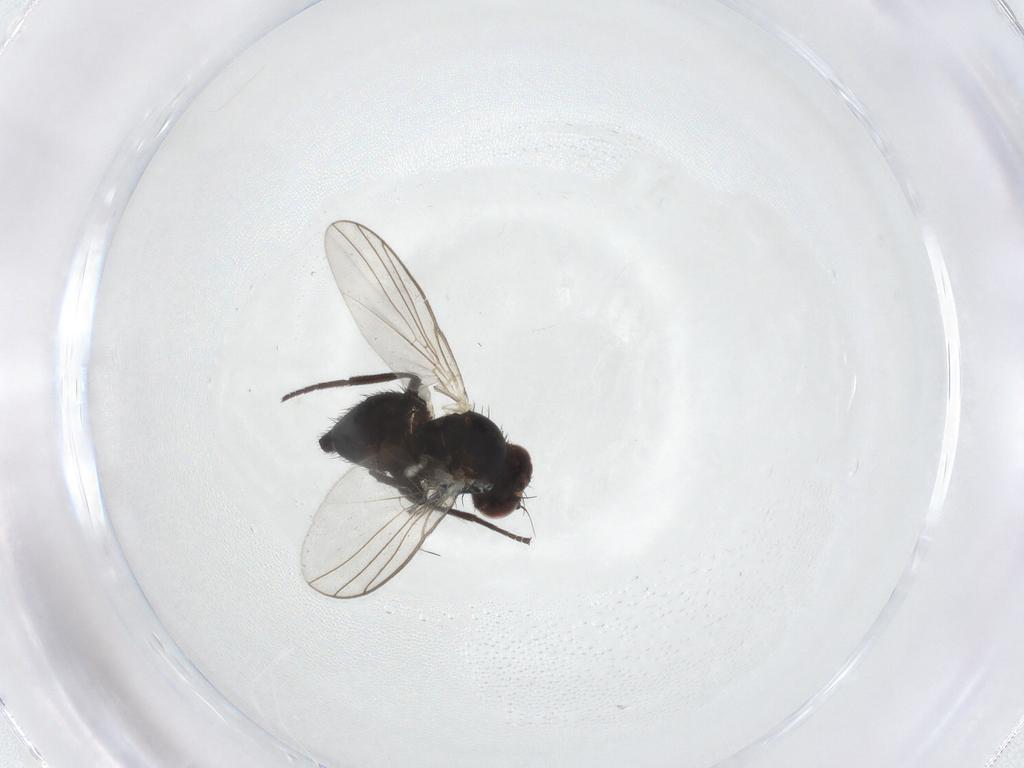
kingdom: Animalia
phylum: Arthropoda
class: Insecta
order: Diptera
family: Agromyzidae
